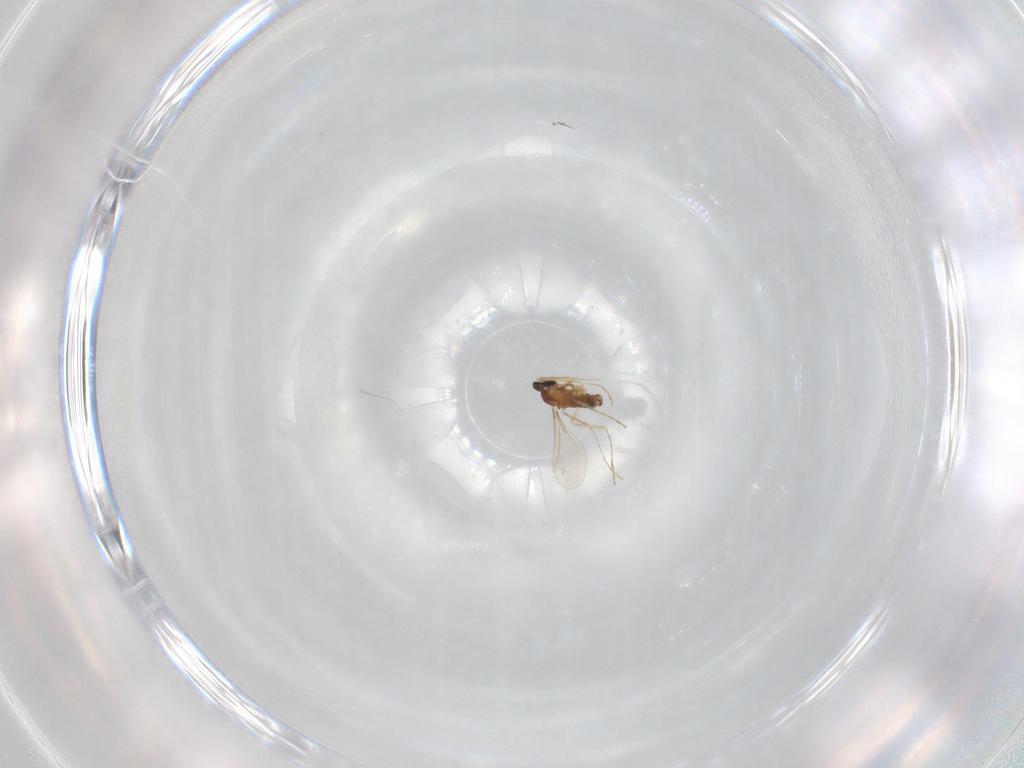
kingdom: Animalia
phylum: Arthropoda
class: Insecta
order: Diptera
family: Cecidomyiidae
